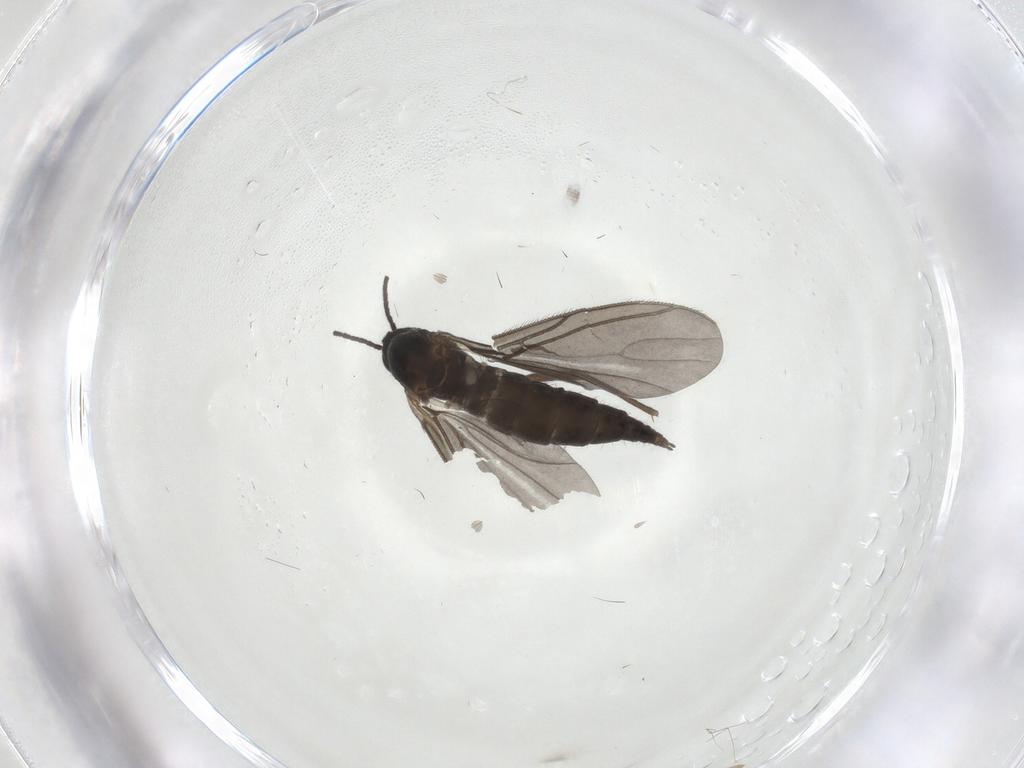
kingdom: Animalia
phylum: Arthropoda
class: Insecta
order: Diptera
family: Sciaridae
